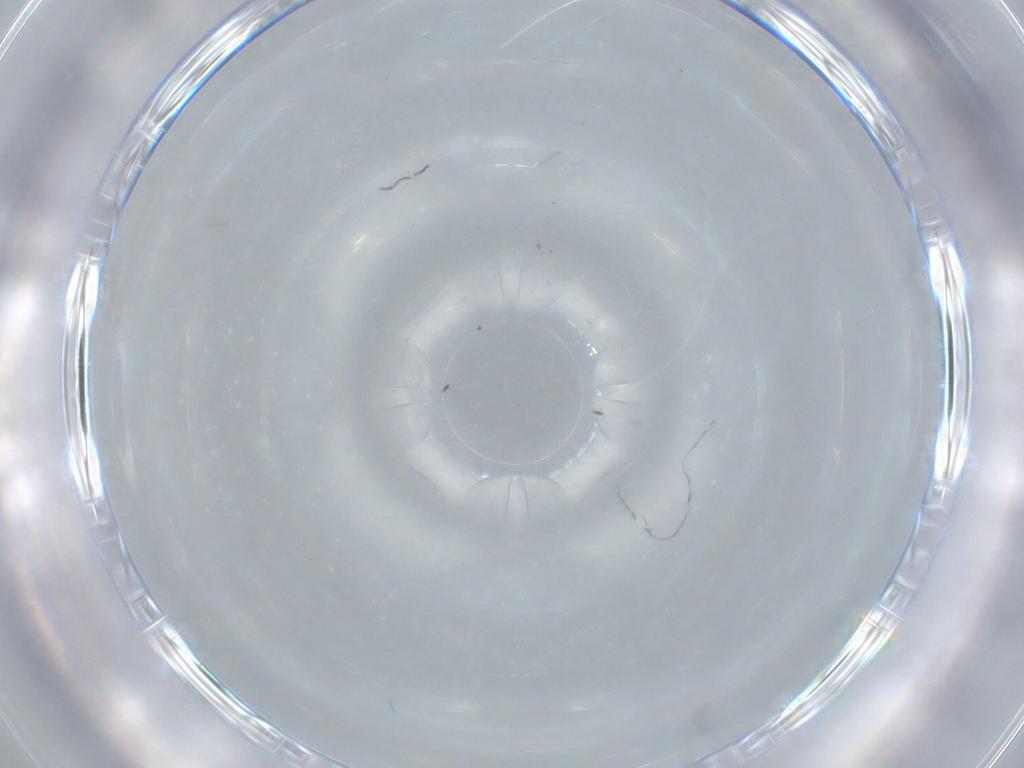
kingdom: Animalia
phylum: Arthropoda
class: Insecta
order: Diptera
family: Cecidomyiidae
